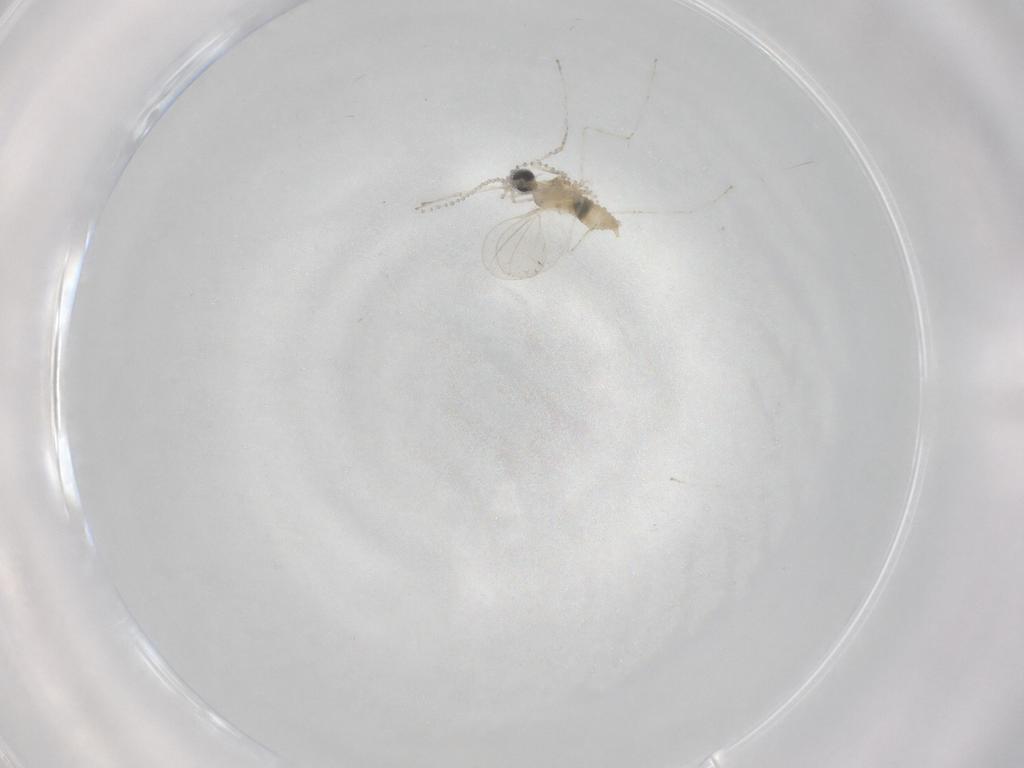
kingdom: Animalia
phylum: Arthropoda
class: Insecta
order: Diptera
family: Cecidomyiidae
